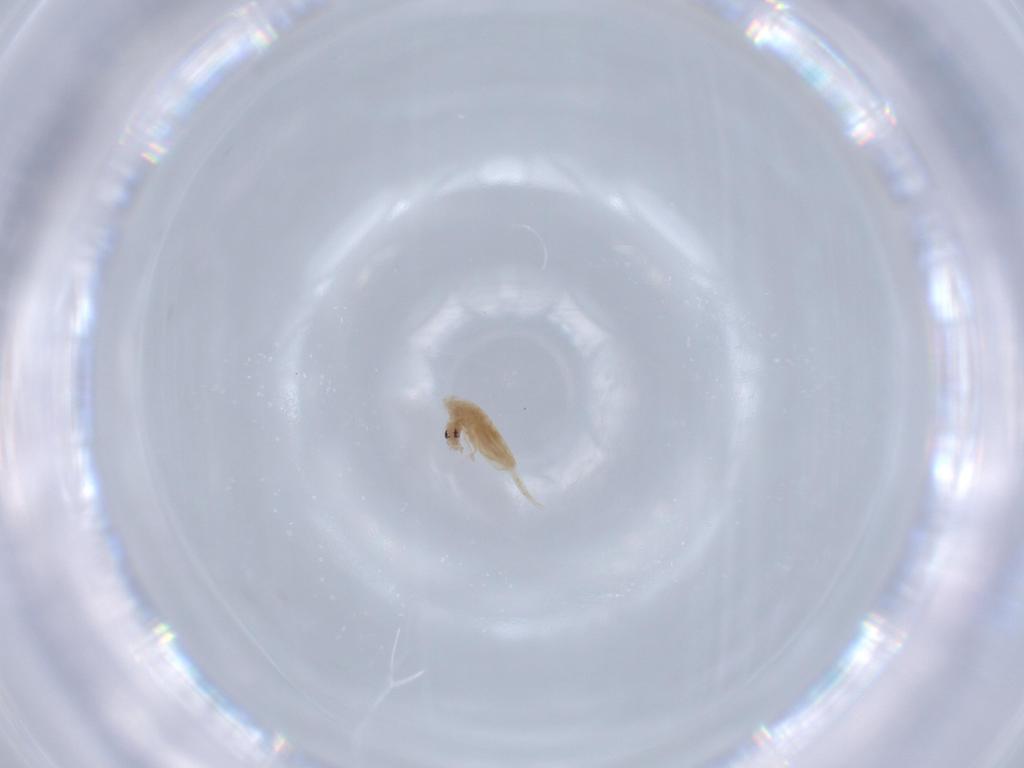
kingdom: Animalia
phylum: Arthropoda
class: Collembola
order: Entomobryomorpha
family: Entomobryidae
